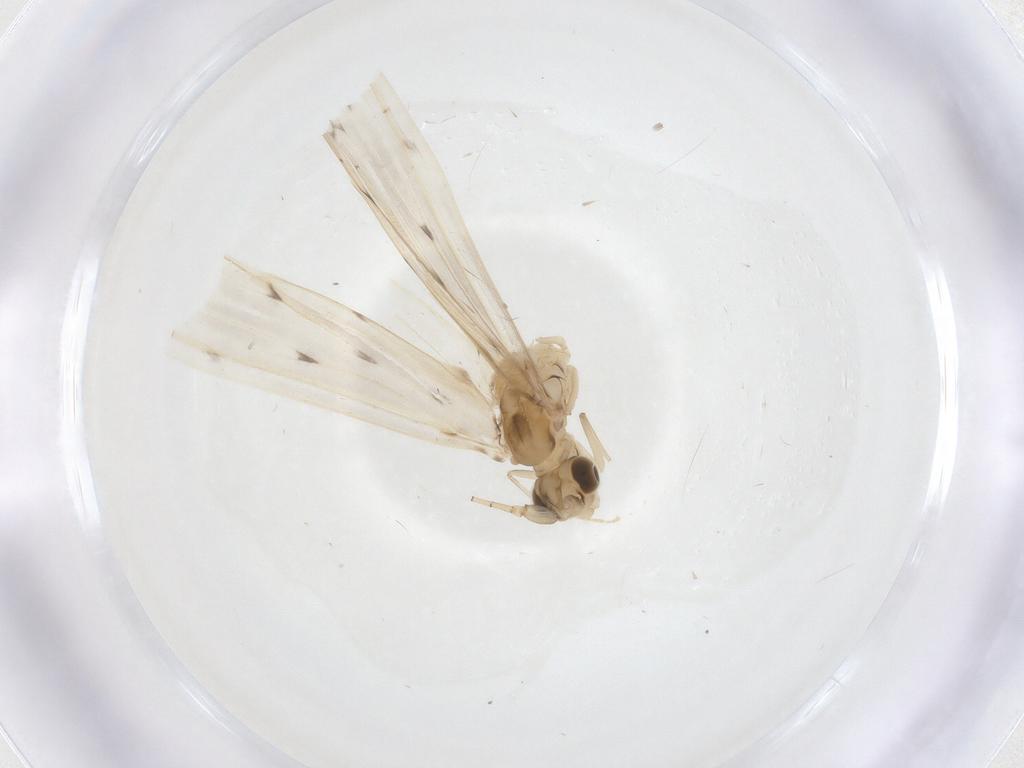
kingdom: Animalia
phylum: Arthropoda
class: Insecta
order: Trichoptera
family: Leptoceridae
